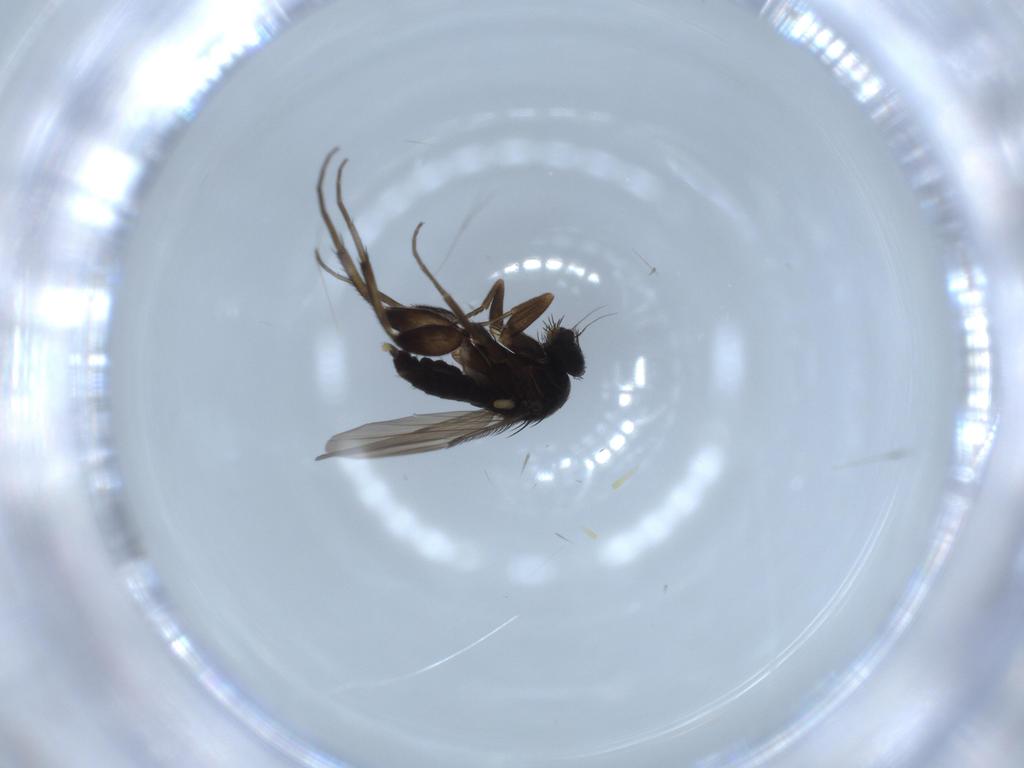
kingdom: Animalia
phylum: Arthropoda
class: Insecta
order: Diptera
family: Phoridae
